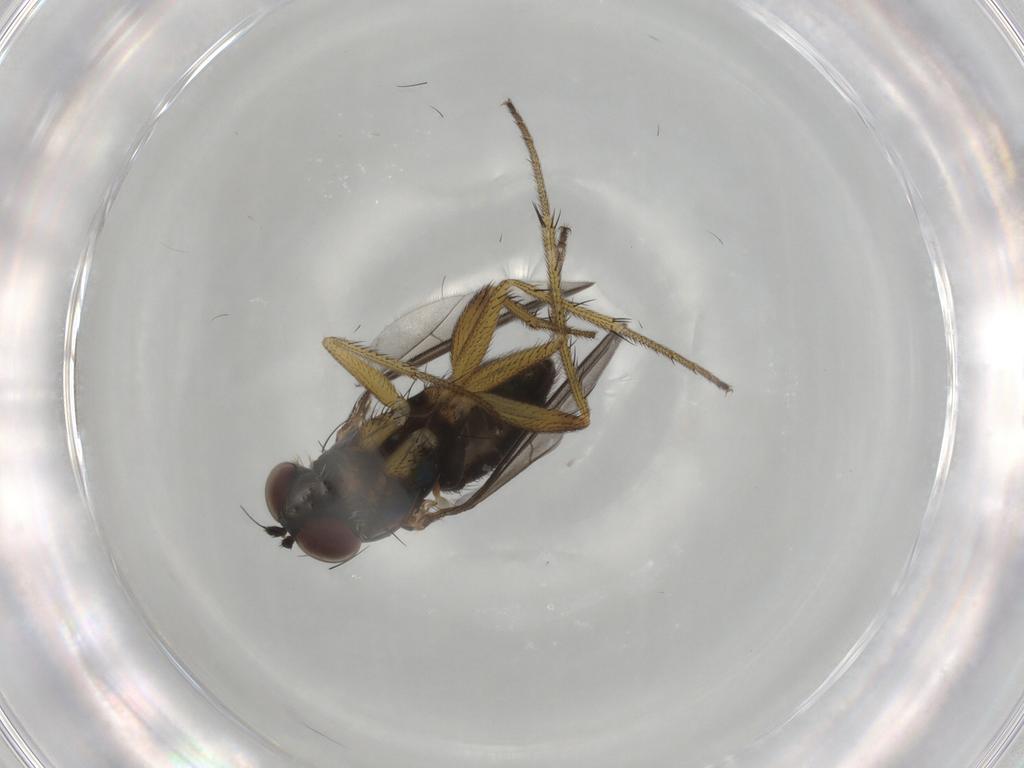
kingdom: Animalia
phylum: Arthropoda
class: Insecta
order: Diptera
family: Dolichopodidae
